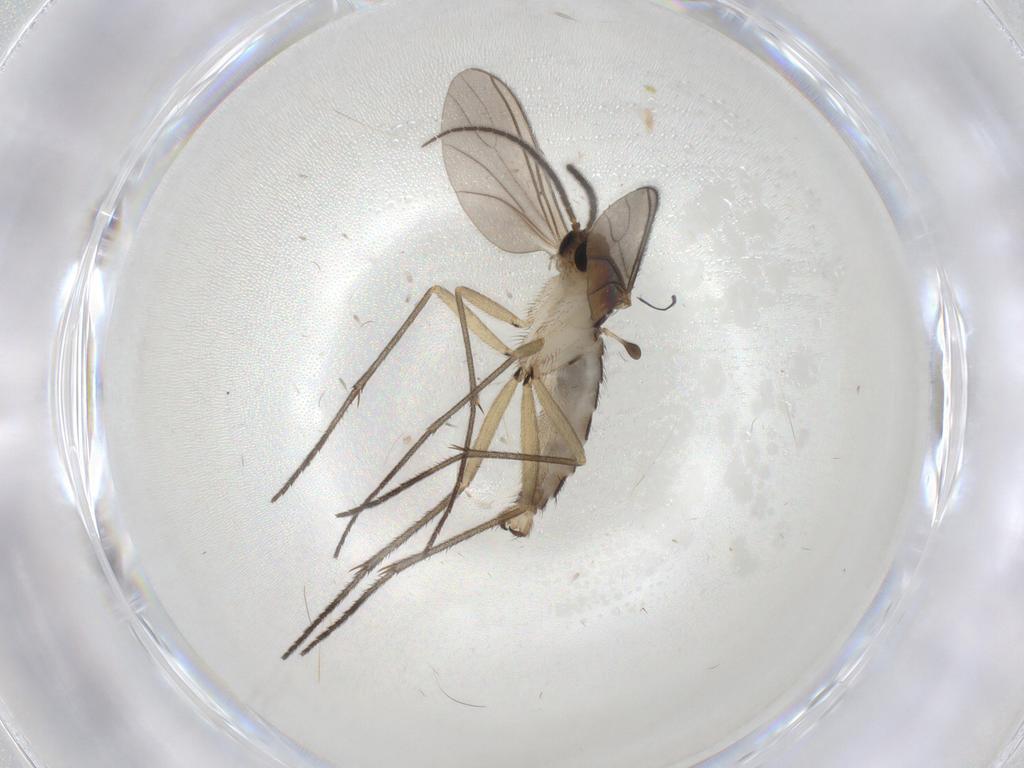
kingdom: Animalia
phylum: Arthropoda
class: Insecta
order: Diptera
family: Sciaridae
